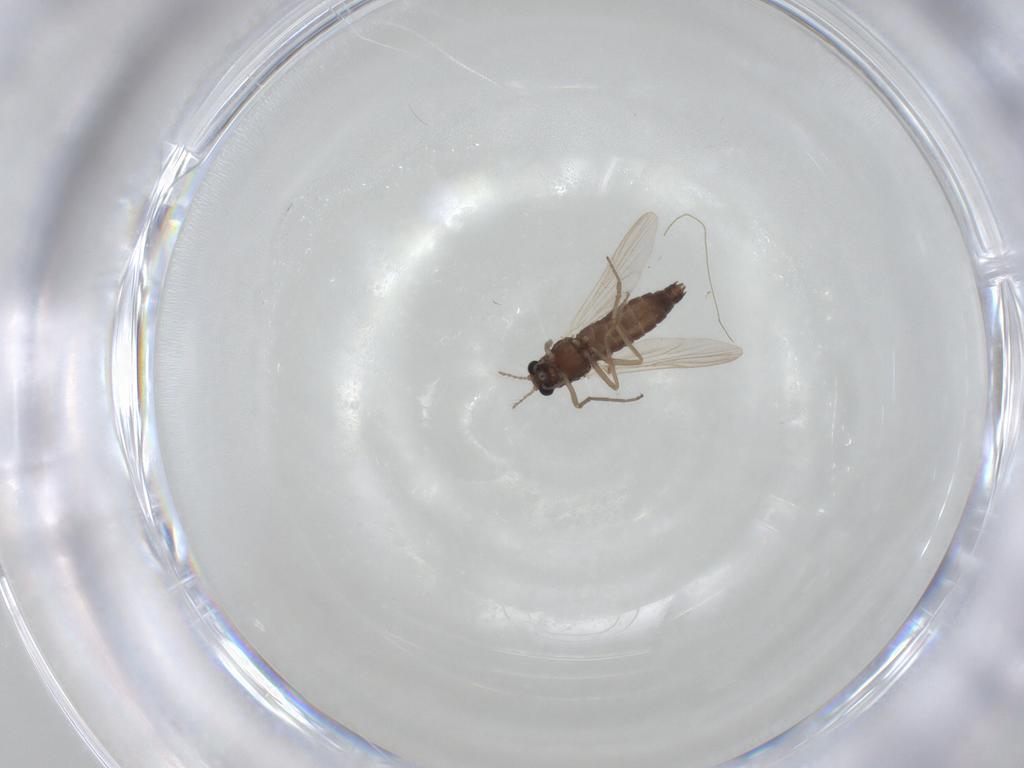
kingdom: Animalia
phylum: Arthropoda
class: Insecta
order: Diptera
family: Chironomidae
